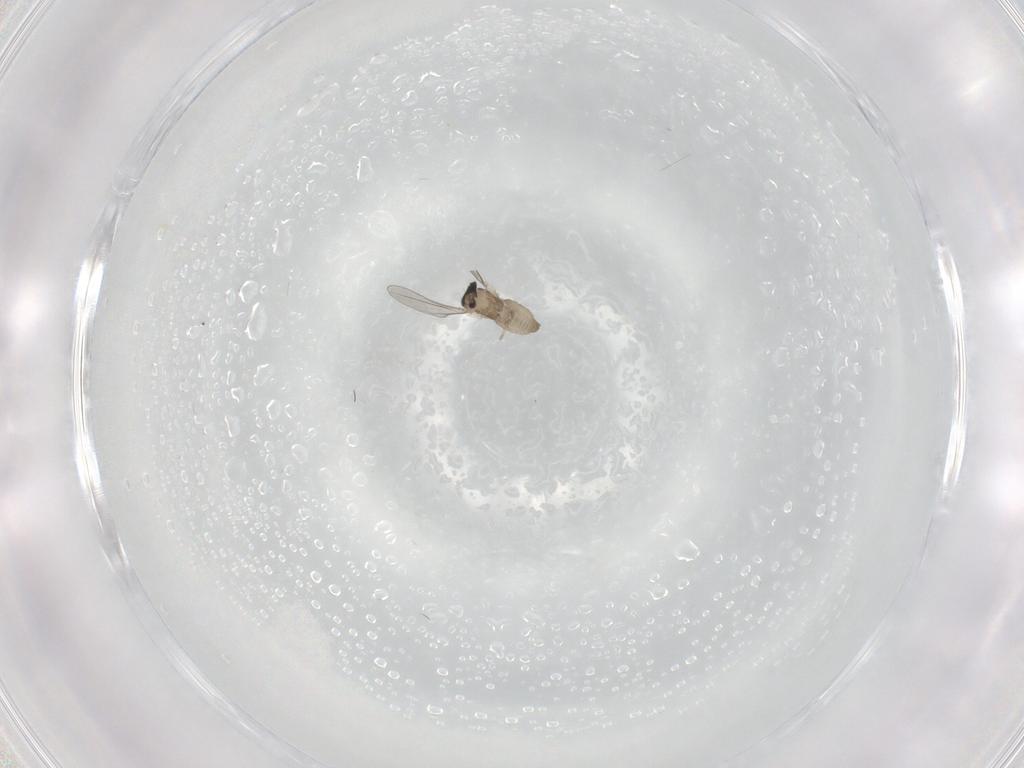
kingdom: Animalia
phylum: Arthropoda
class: Insecta
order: Diptera
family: Cecidomyiidae
